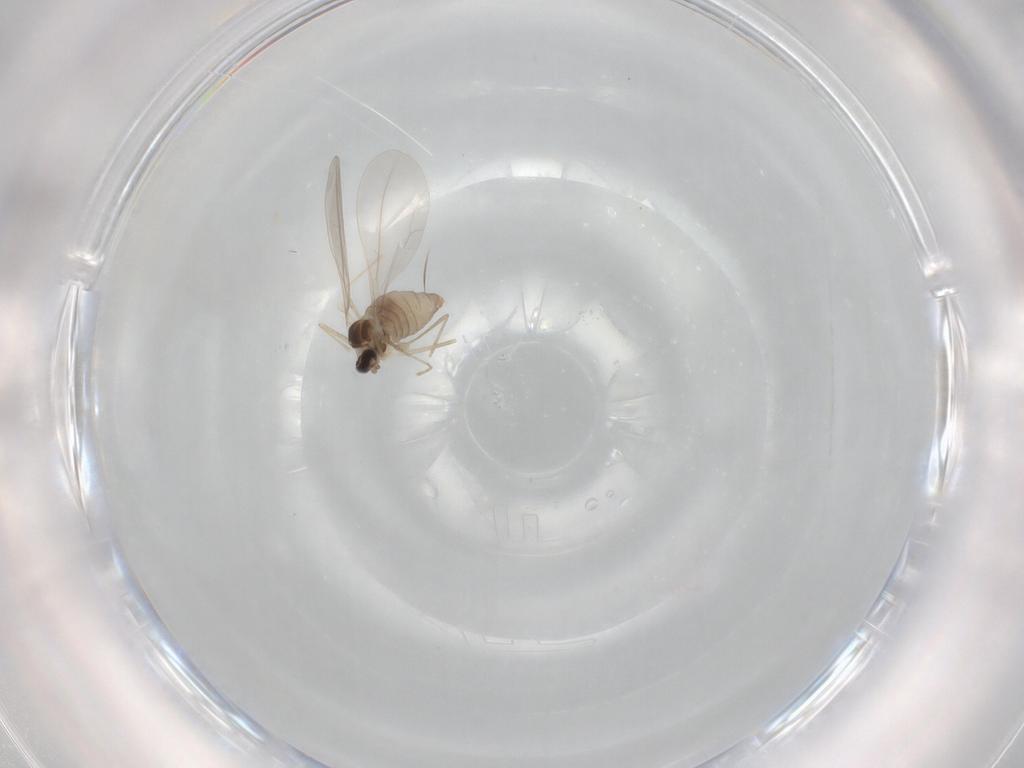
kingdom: Animalia
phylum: Arthropoda
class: Insecta
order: Diptera
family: Cecidomyiidae
